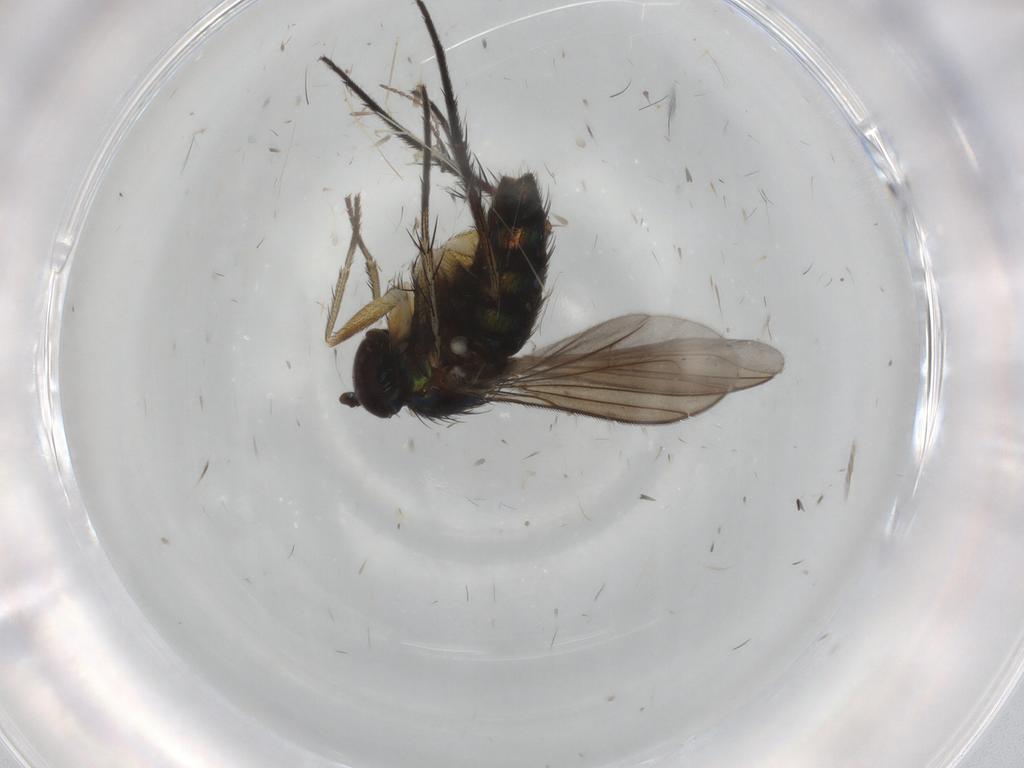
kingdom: Animalia
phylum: Arthropoda
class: Insecta
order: Diptera
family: Dolichopodidae
